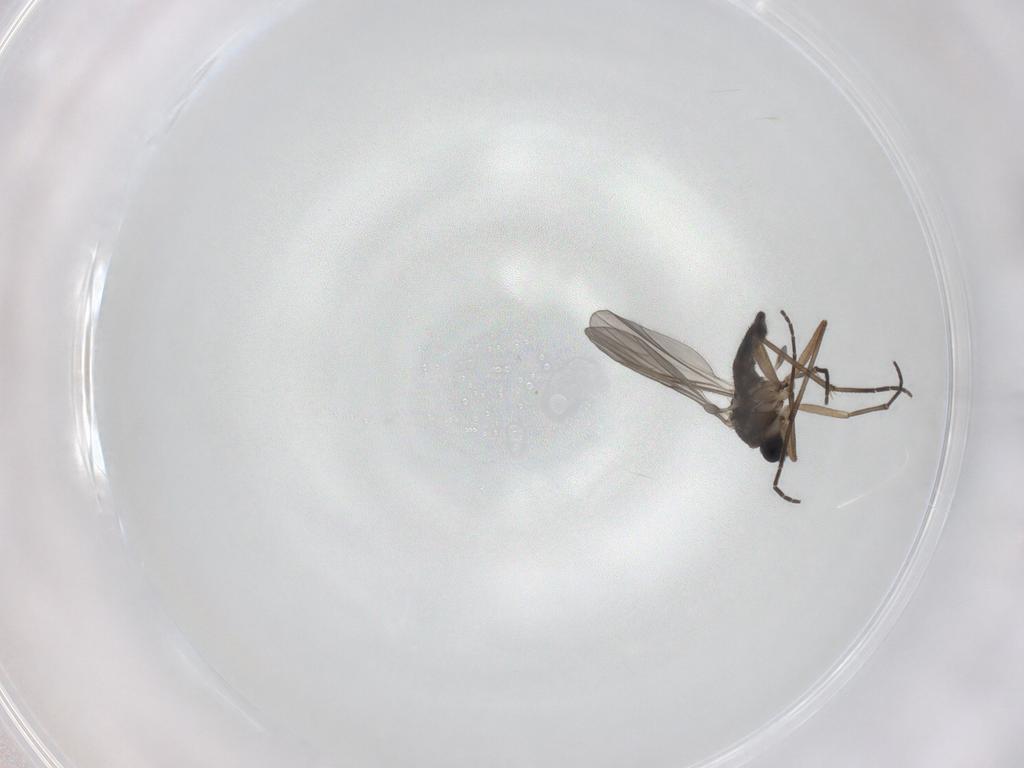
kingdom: Animalia
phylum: Arthropoda
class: Insecta
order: Diptera
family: Sciaridae
